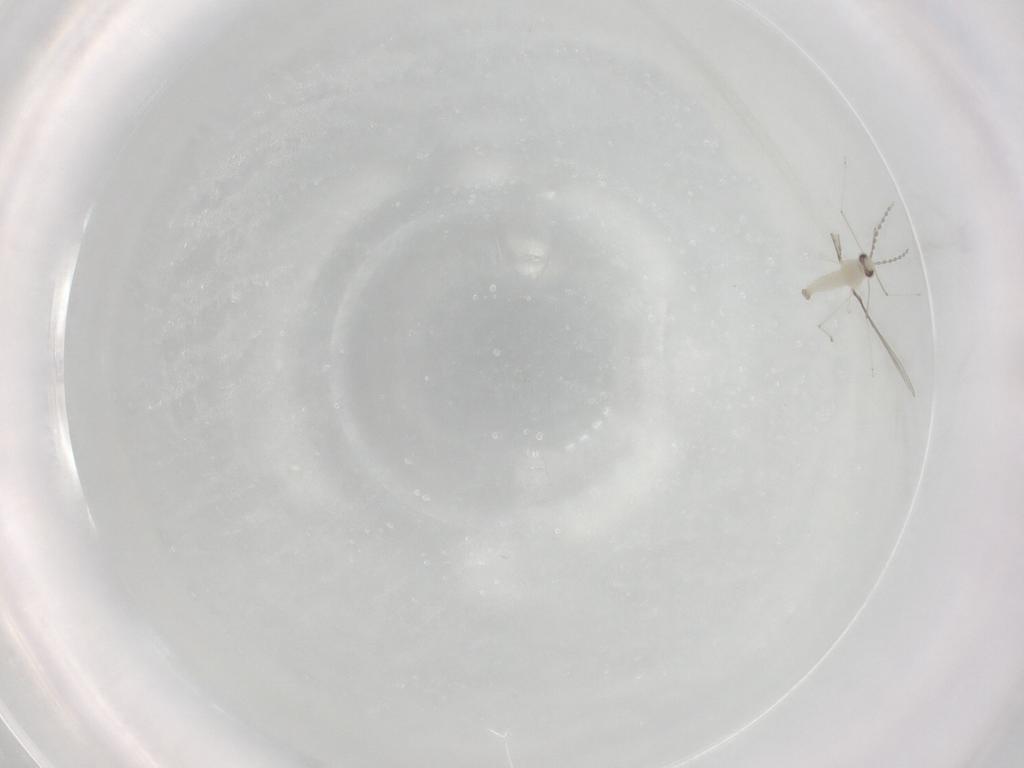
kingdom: Animalia
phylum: Arthropoda
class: Insecta
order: Diptera
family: Cecidomyiidae
